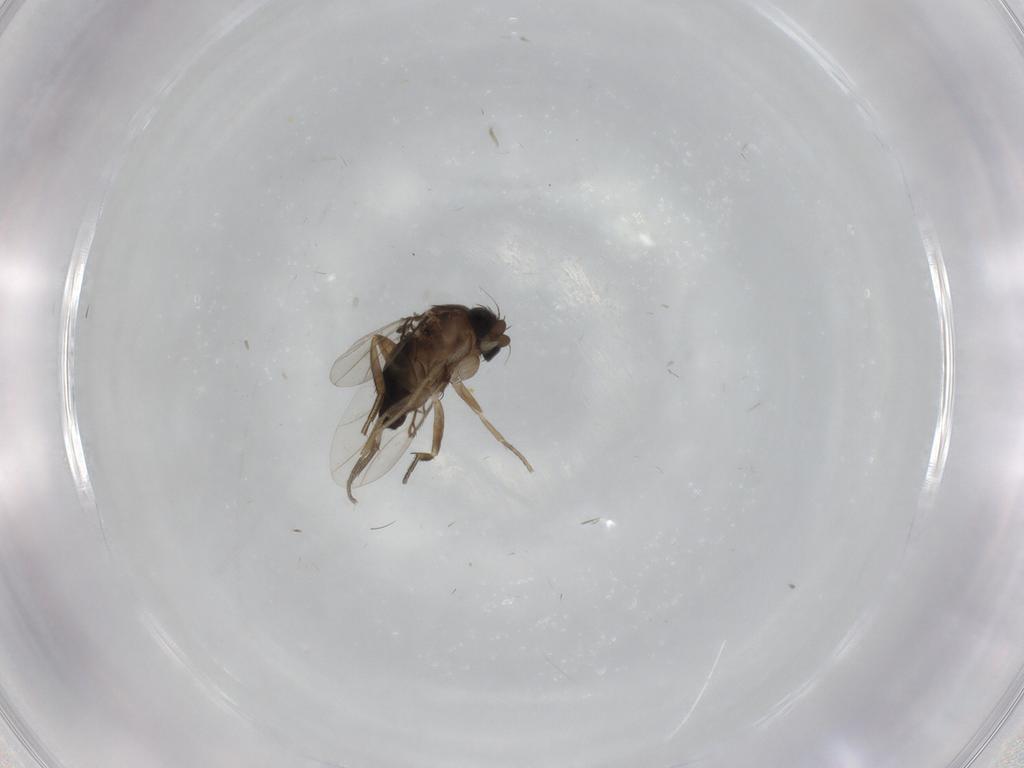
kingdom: Animalia
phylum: Arthropoda
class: Insecta
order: Diptera
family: Phoridae
